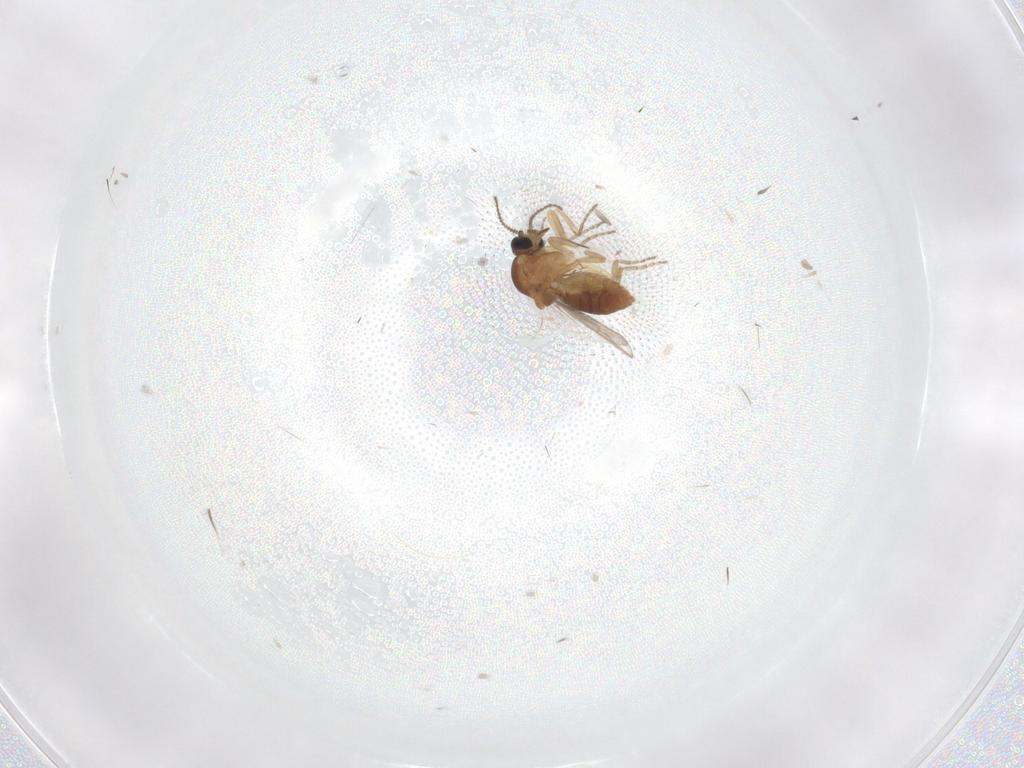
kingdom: Animalia
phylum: Arthropoda
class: Insecta
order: Diptera
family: Ceratopogonidae
